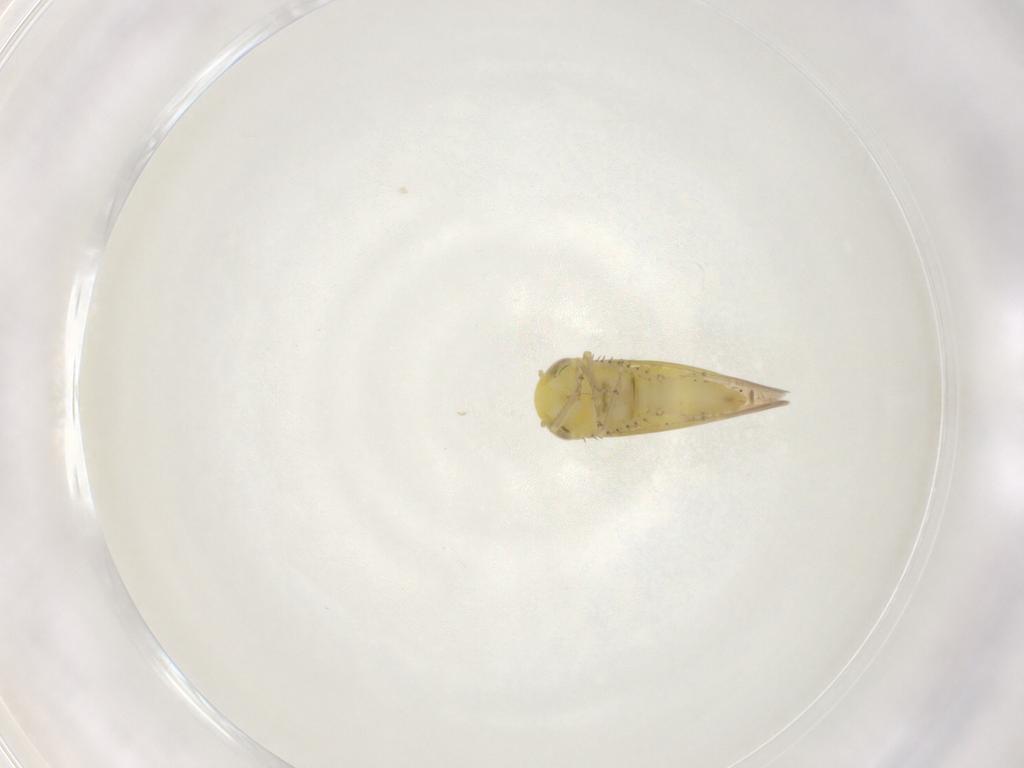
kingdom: Animalia
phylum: Arthropoda
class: Insecta
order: Hemiptera
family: Cicadellidae
